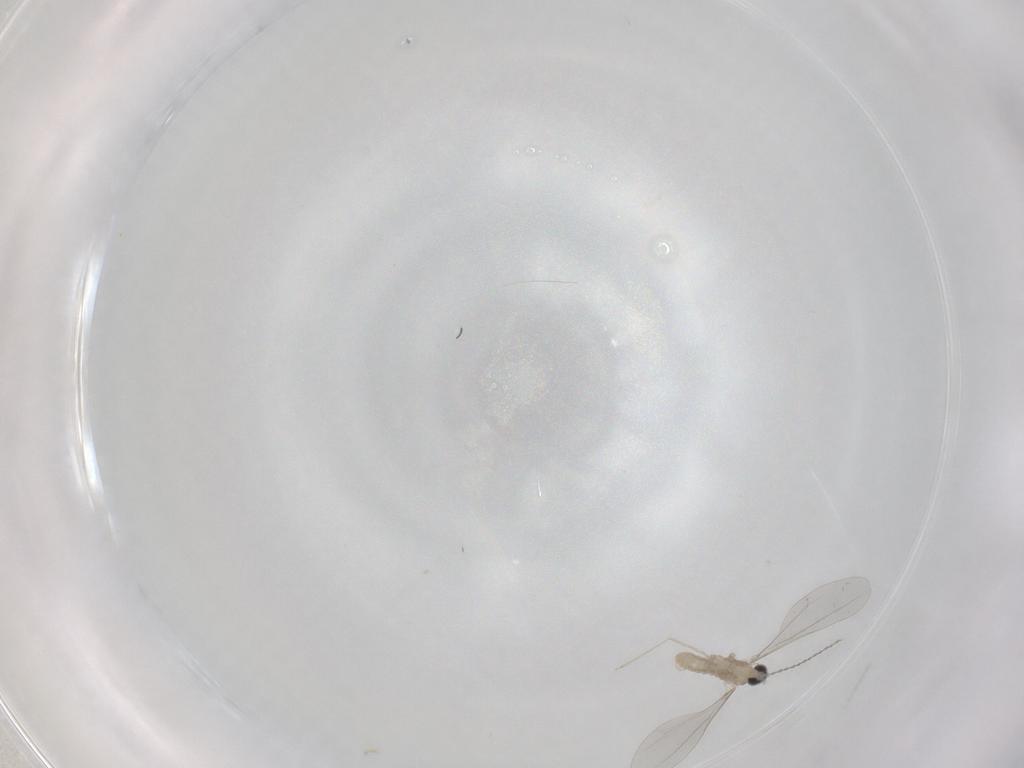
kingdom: Animalia
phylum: Arthropoda
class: Insecta
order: Diptera
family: Cecidomyiidae
